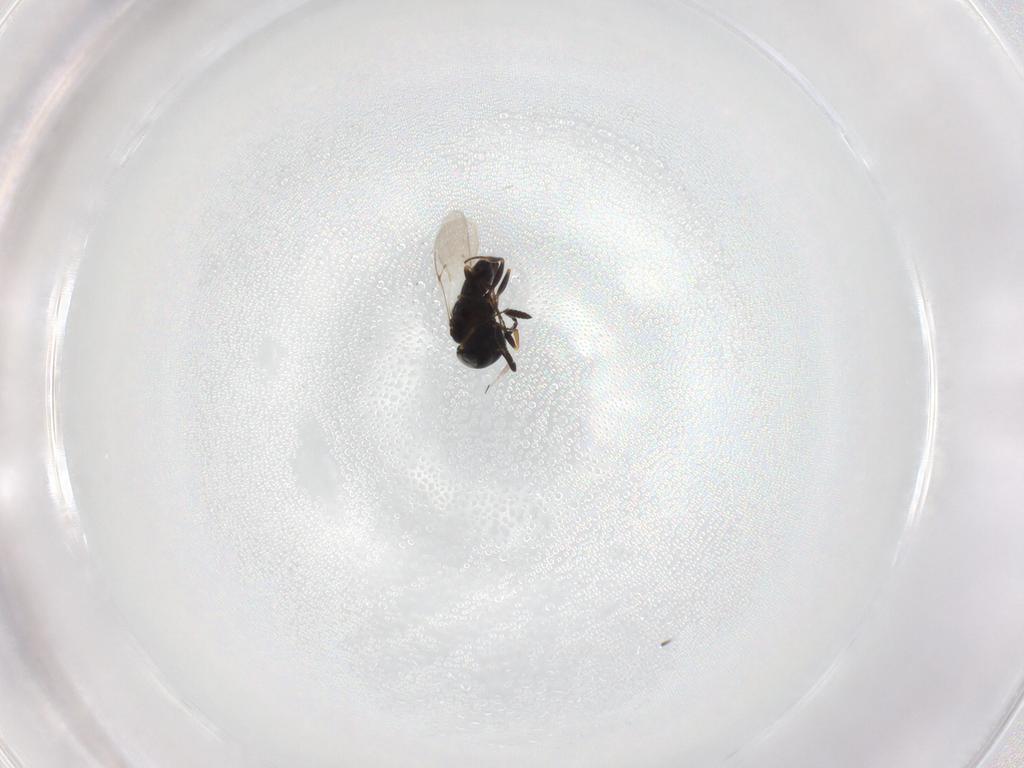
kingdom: Animalia
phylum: Arthropoda
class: Insecta
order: Hymenoptera
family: Scelionidae
